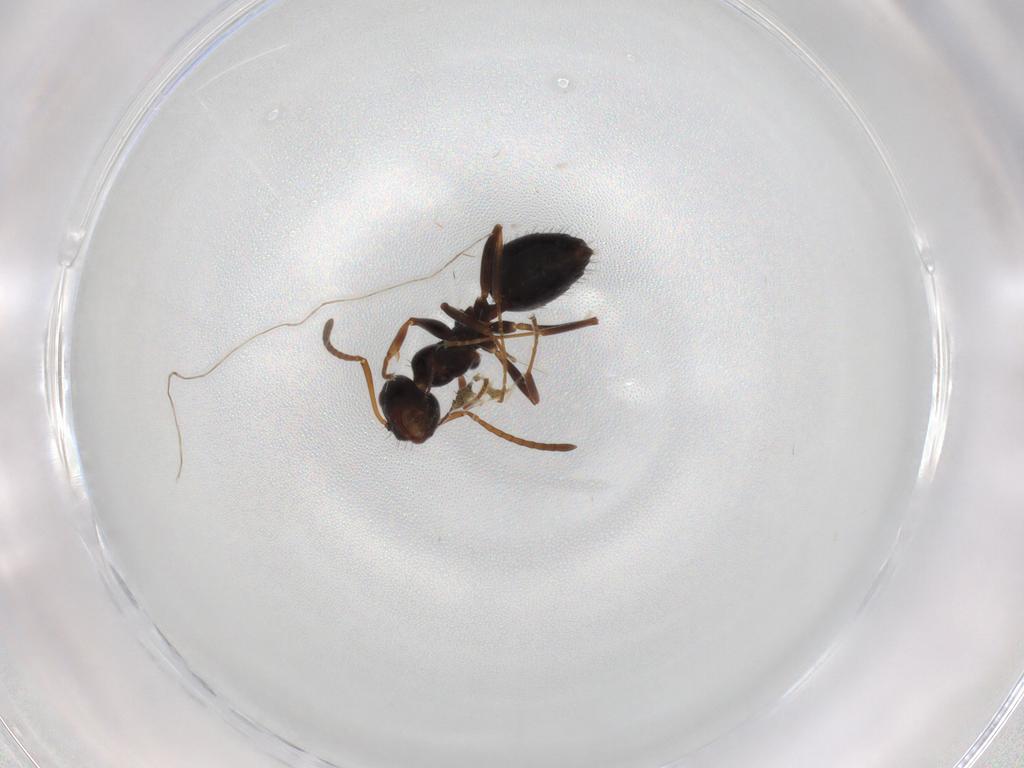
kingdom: Animalia
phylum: Arthropoda
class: Insecta
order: Hymenoptera
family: Formicidae
